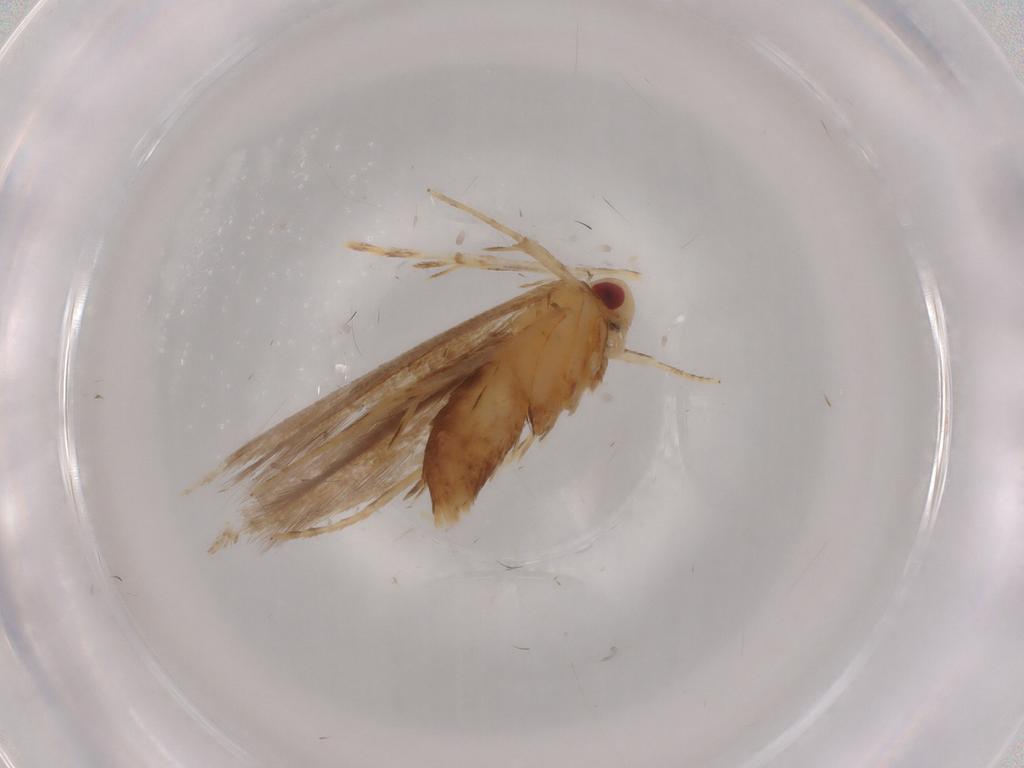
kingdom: Animalia
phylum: Arthropoda
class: Insecta
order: Lepidoptera
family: Cosmopterigidae
